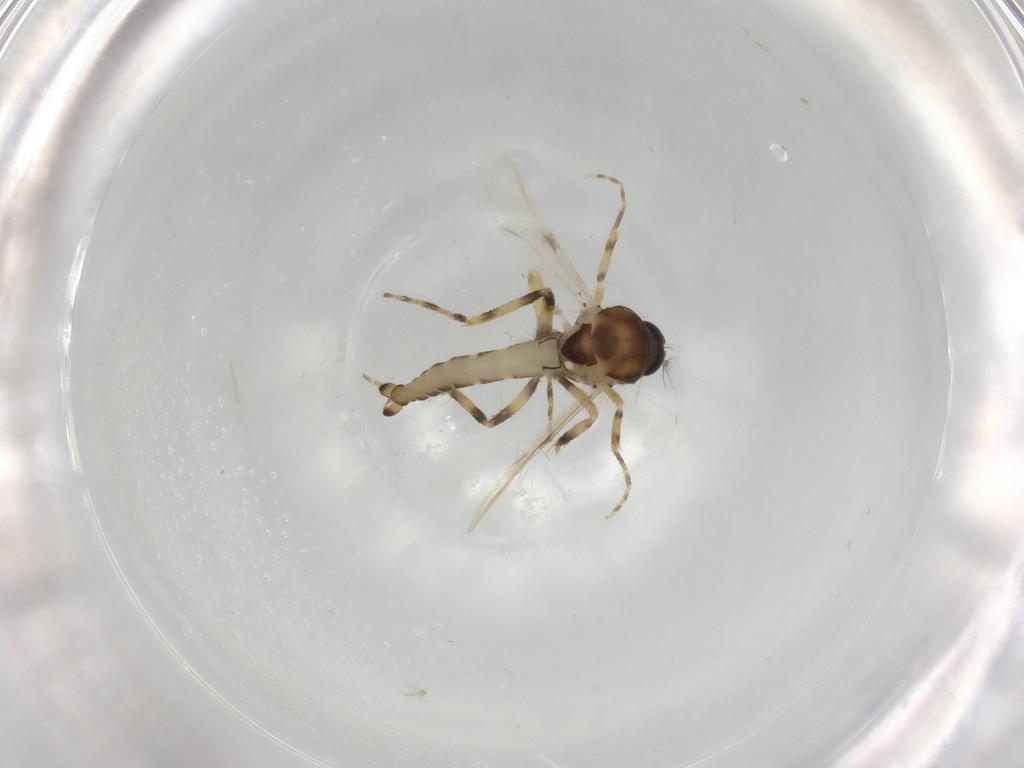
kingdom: Animalia
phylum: Arthropoda
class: Insecta
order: Diptera
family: Ceratopogonidae
